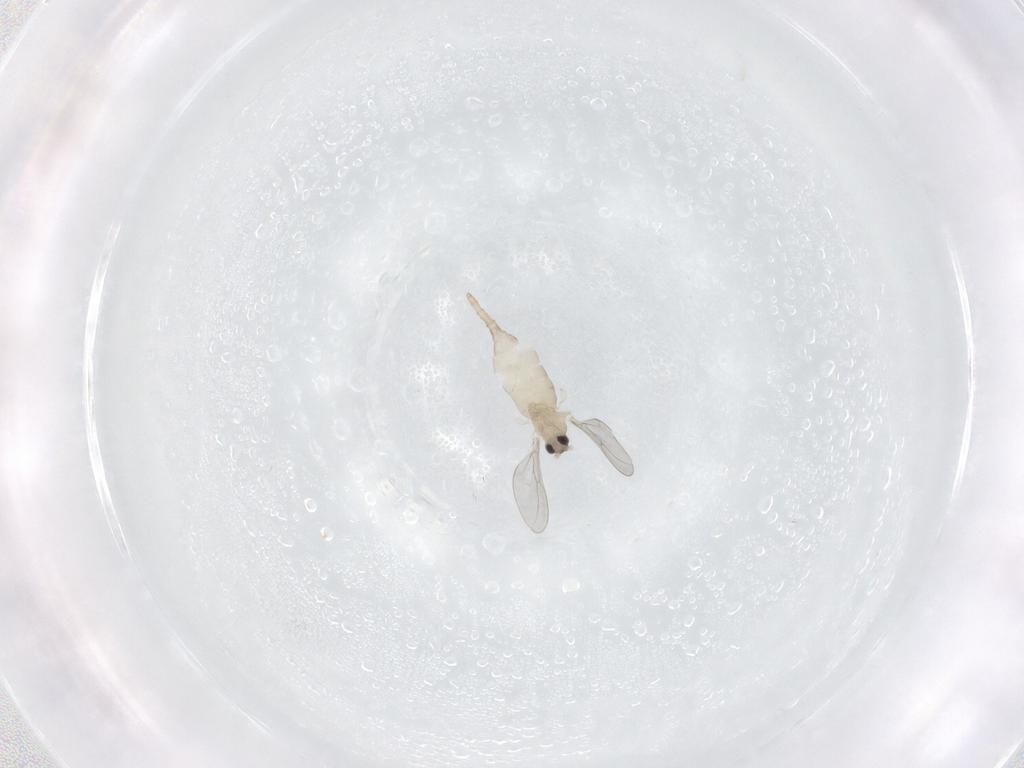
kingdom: Animalia
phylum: Arthropoda
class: Insecta
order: Diptera
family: Cecidomyiidae
